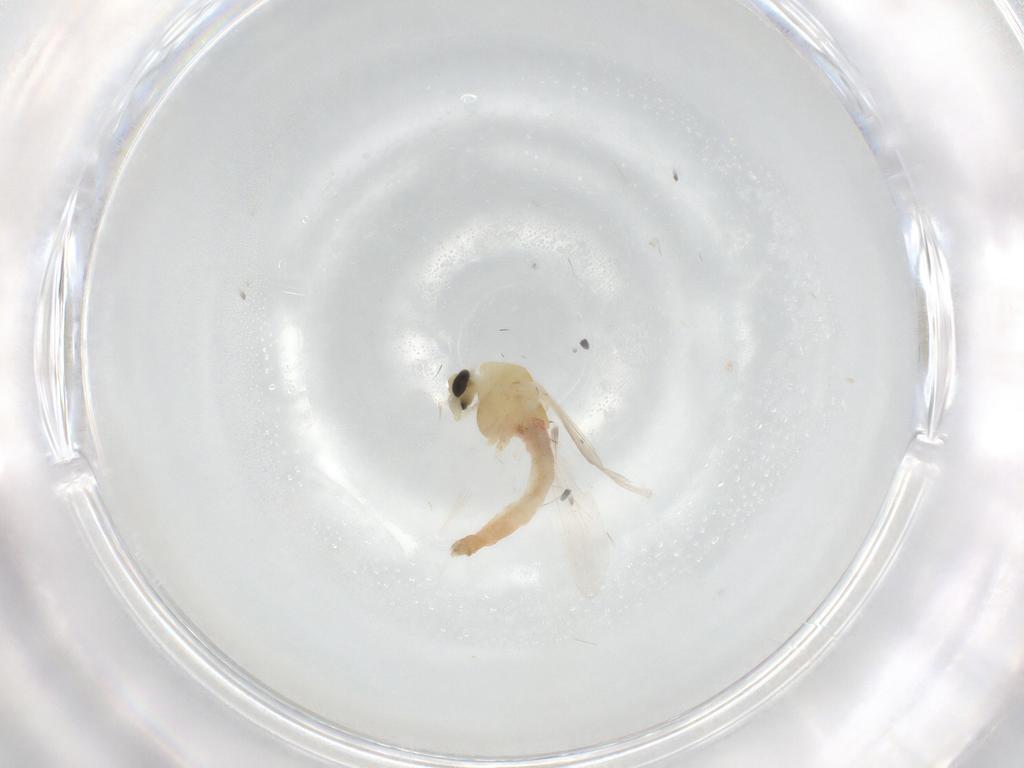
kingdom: Animalia
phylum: Arthropoda
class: Insecta
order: Diptera
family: Chironomidae
